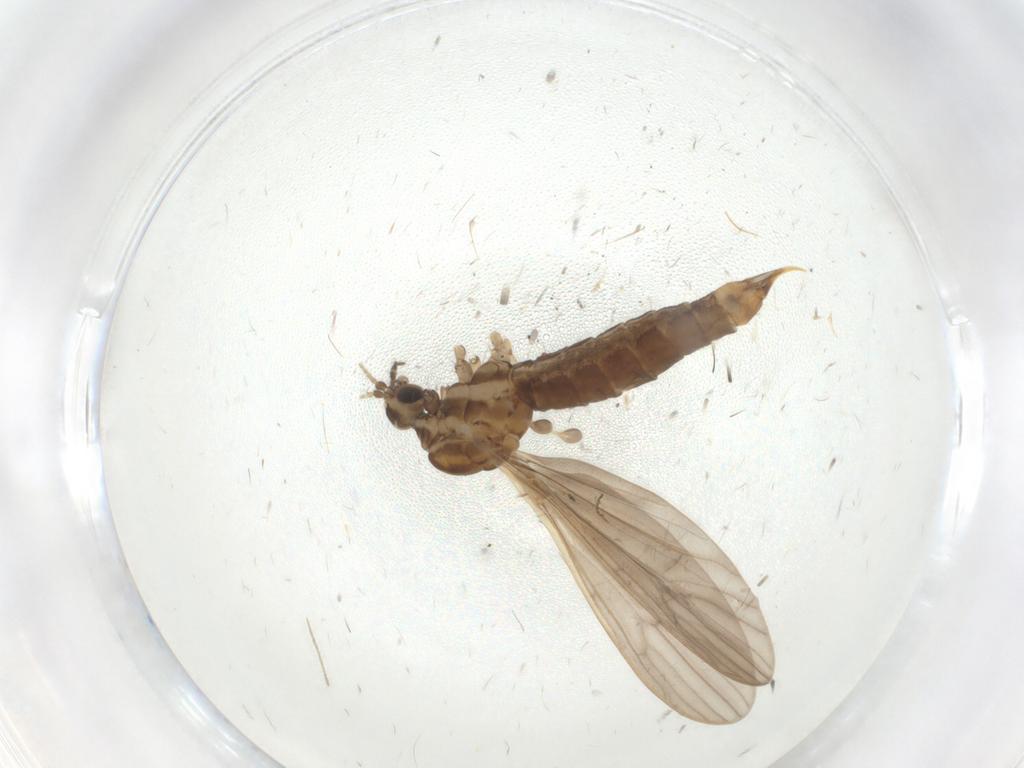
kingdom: Animalia
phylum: Arthropoda
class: Insecta
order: Diptera
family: Limoniidae
